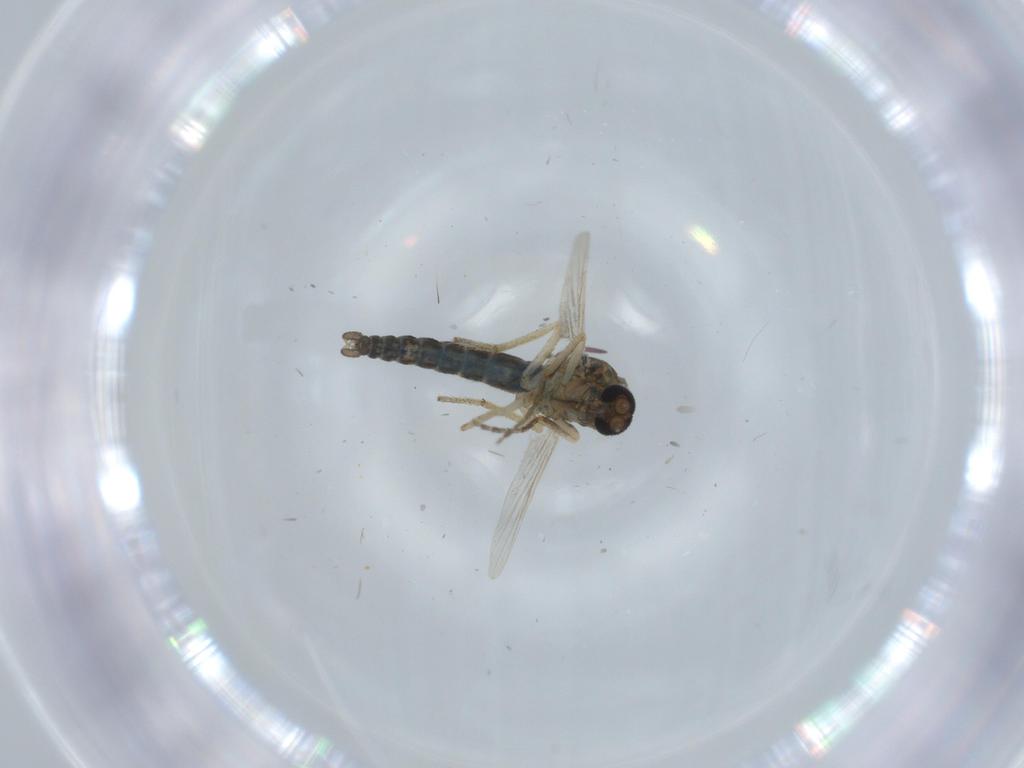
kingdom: Animalia
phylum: Arthropoda
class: Insecta
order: Diptera
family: Ceratopogonidae
